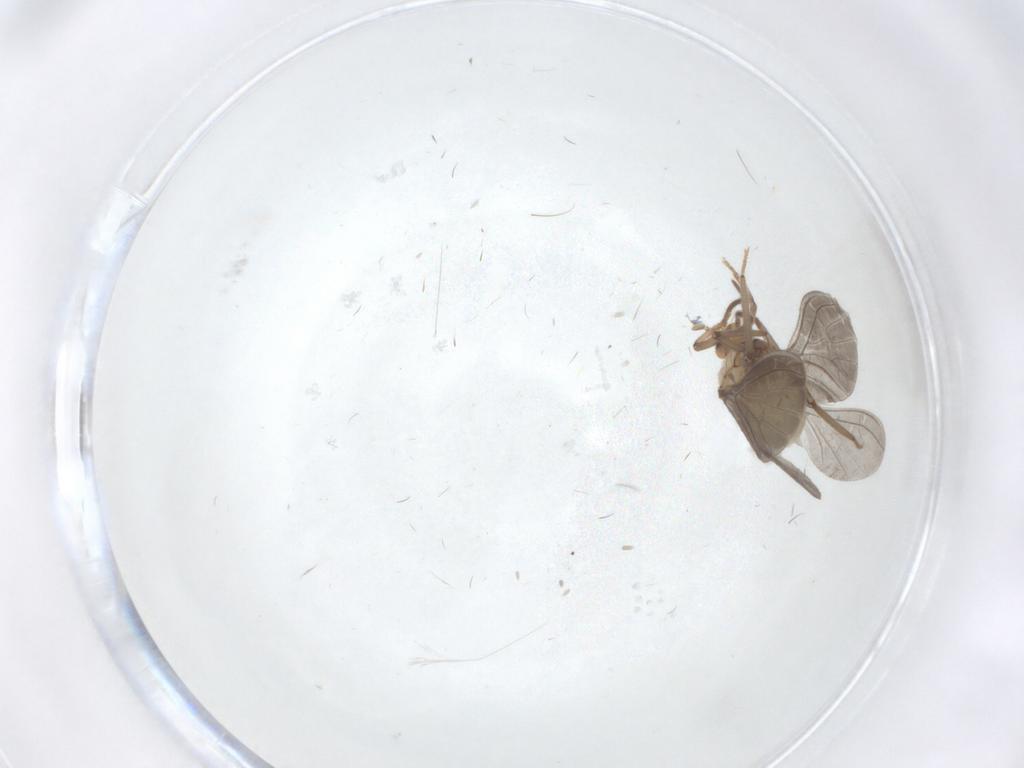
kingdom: Animalia
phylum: Arthropoda
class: Insecta
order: Neuroptera
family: Coniopterygidae
